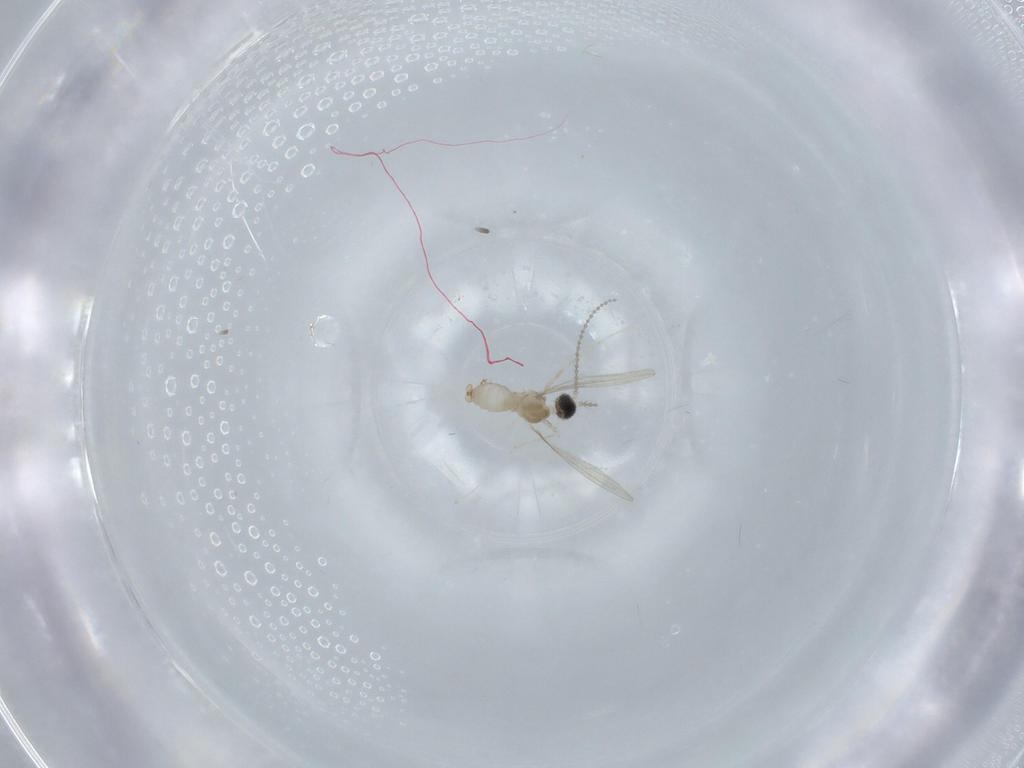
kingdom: Animalia
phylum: Arthropoda
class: Insecta
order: Diptera
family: Cecidomyiidae
